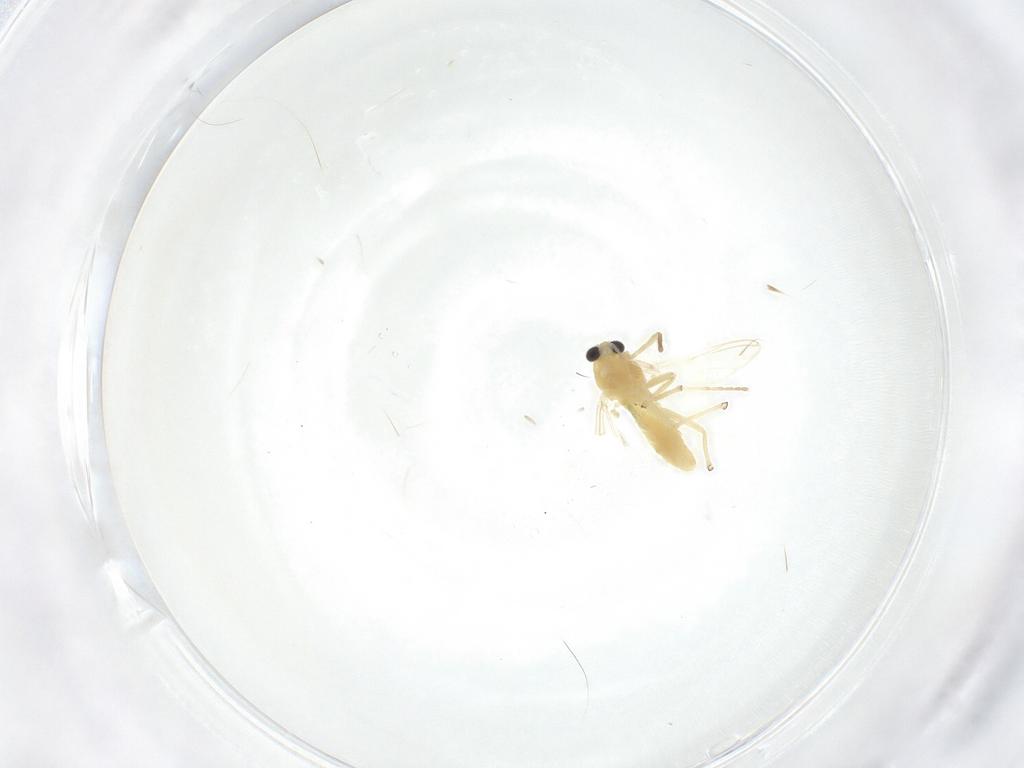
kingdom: Animalia
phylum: Arthropoda
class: Insecta
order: Diptera
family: Chironomidae
